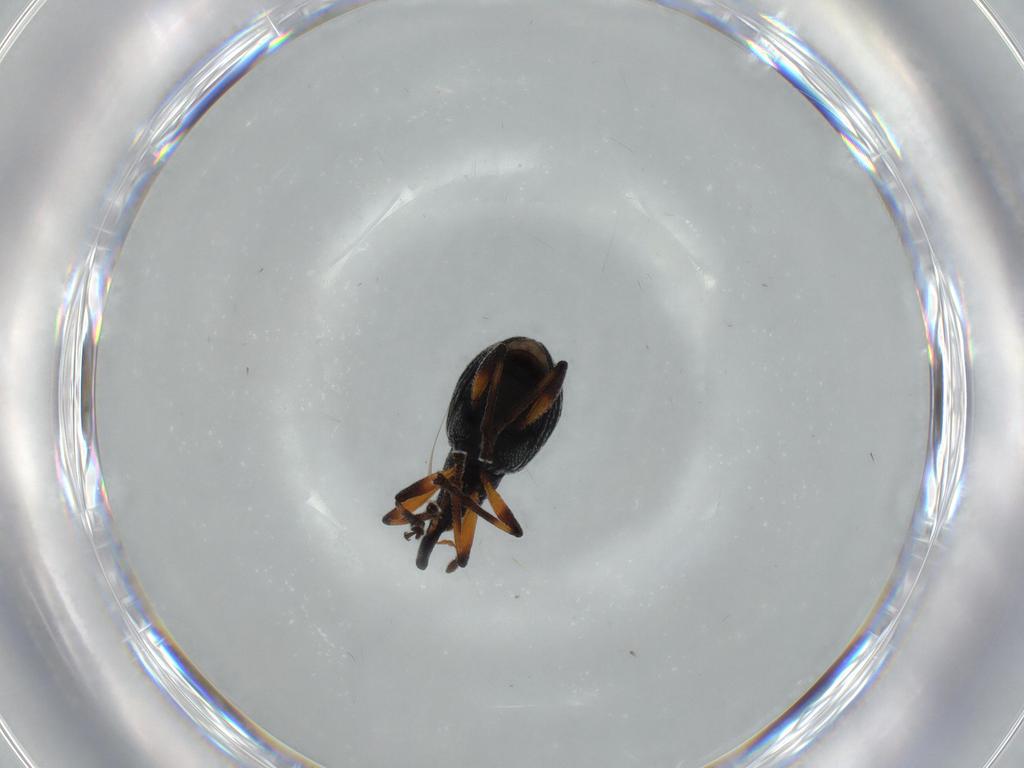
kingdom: Animalia
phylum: Arthropoda
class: Insecta
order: Coleoptera
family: Brentidae
